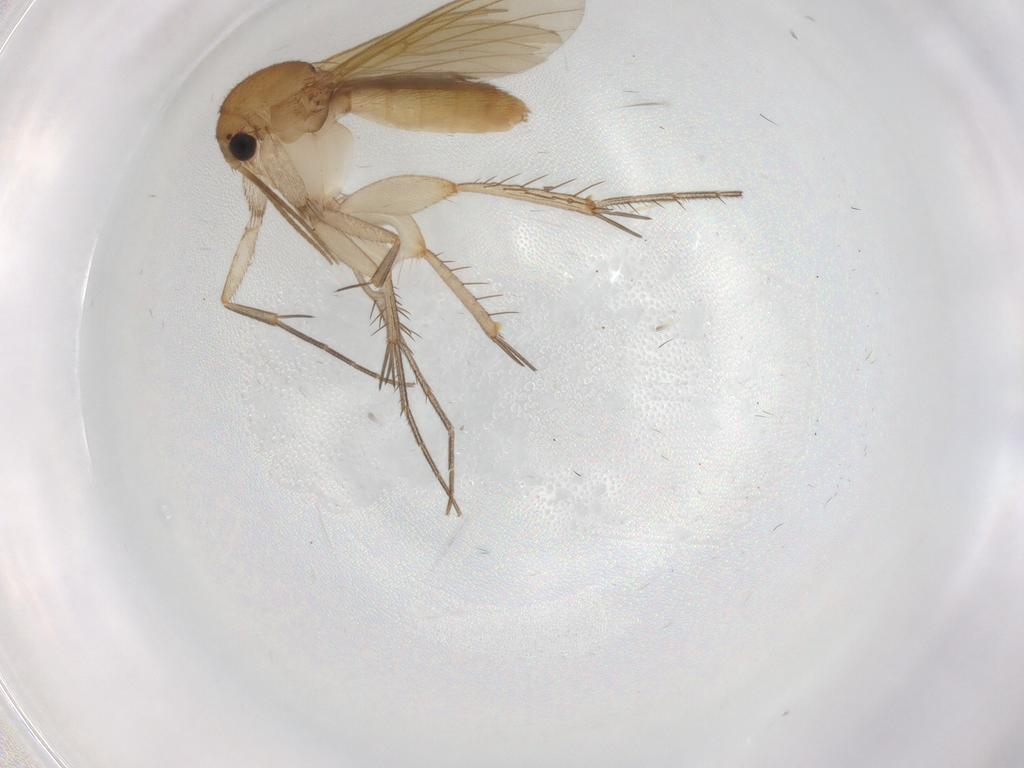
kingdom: Animalia
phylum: Arthropoda
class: Insecta
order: Diptera
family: Mycetophilidae
